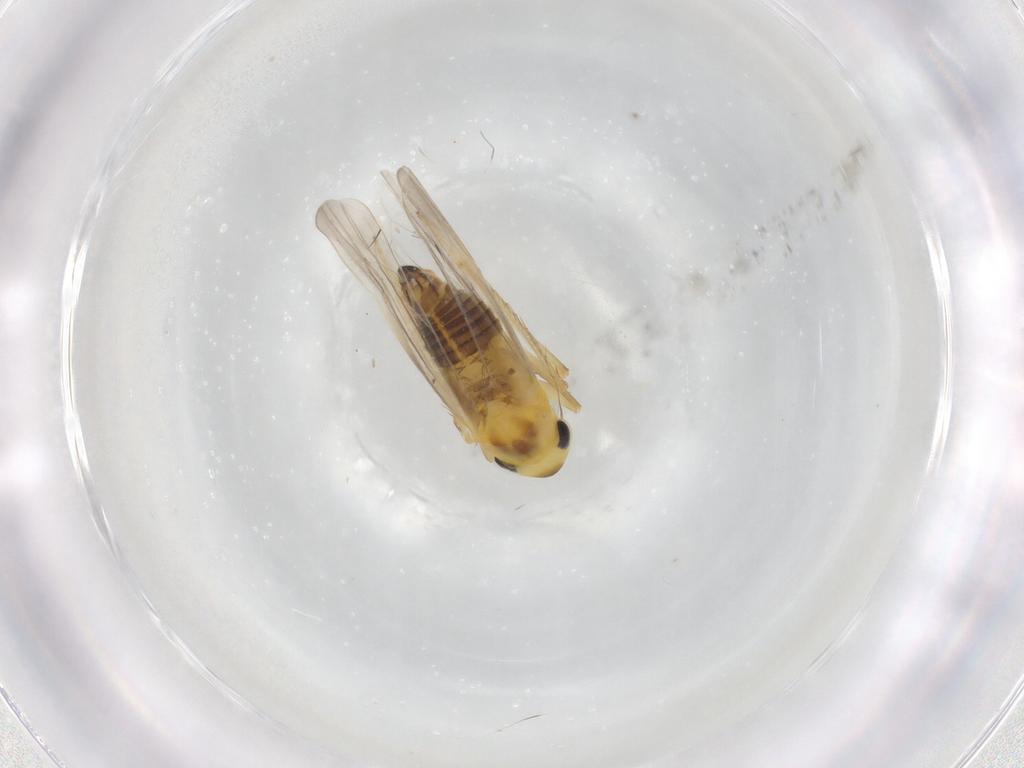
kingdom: Animalia
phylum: Arthropoda
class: Insecta
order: Hemiptera
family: Cicadellidae
